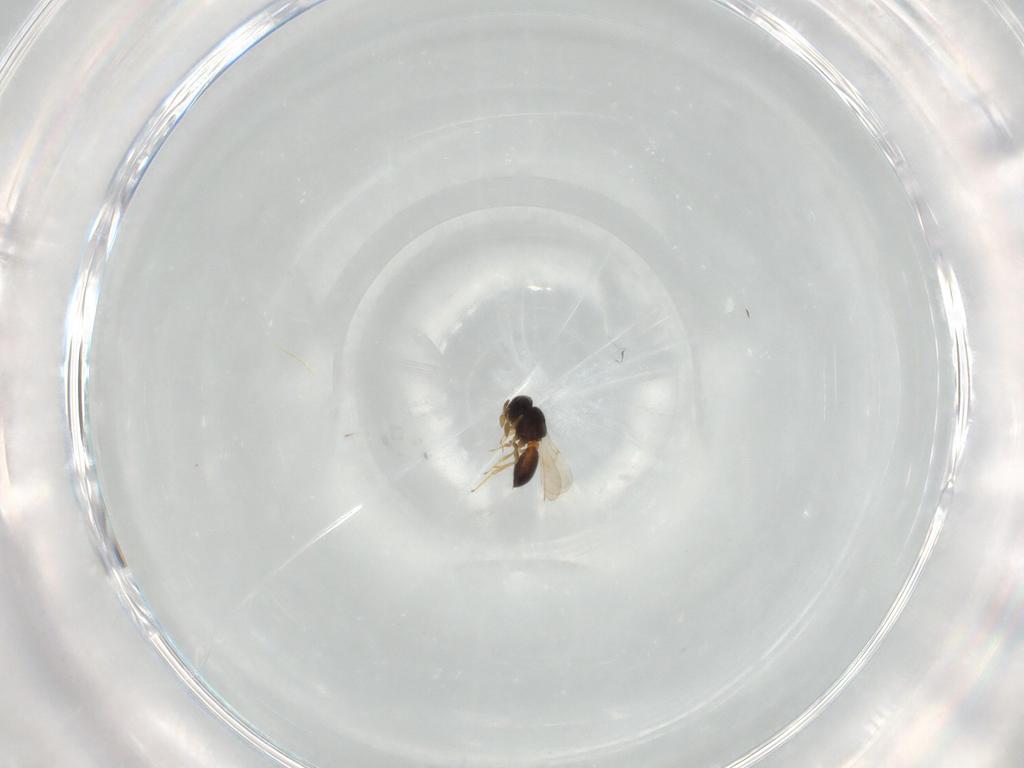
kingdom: Animalia
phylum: Arthropoda
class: Insecta
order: Hymenoptera
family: Scelionidae
